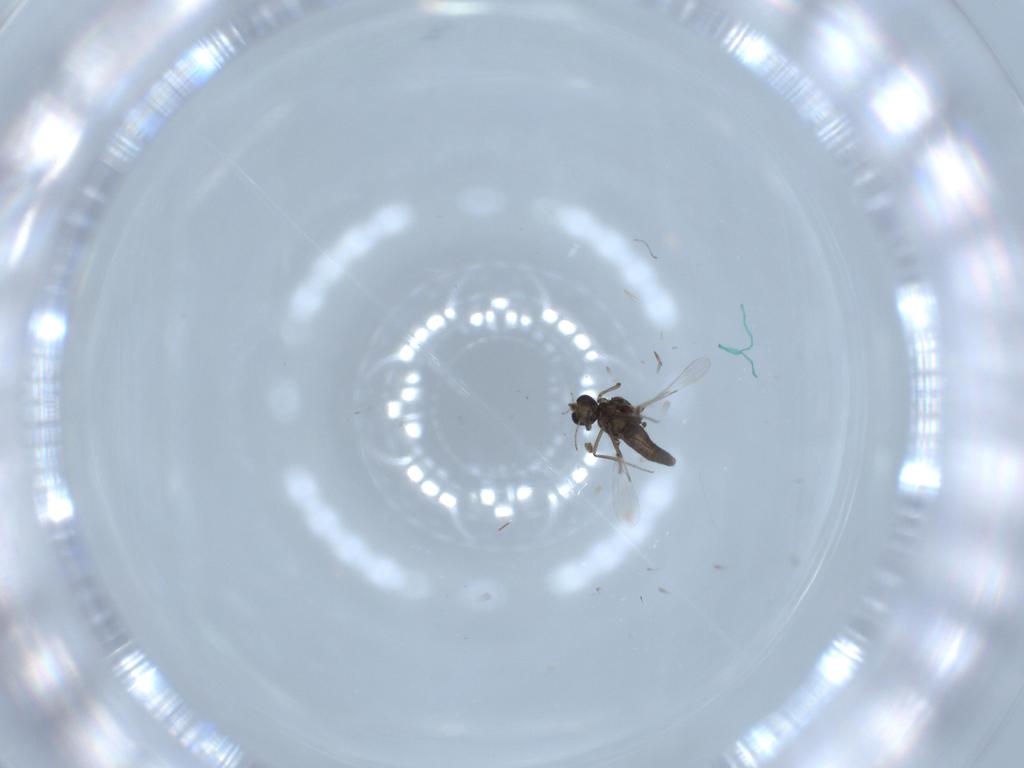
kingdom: Animalia
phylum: Arthropoda
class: Insecta
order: Diptera
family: Ceratopogonidae
